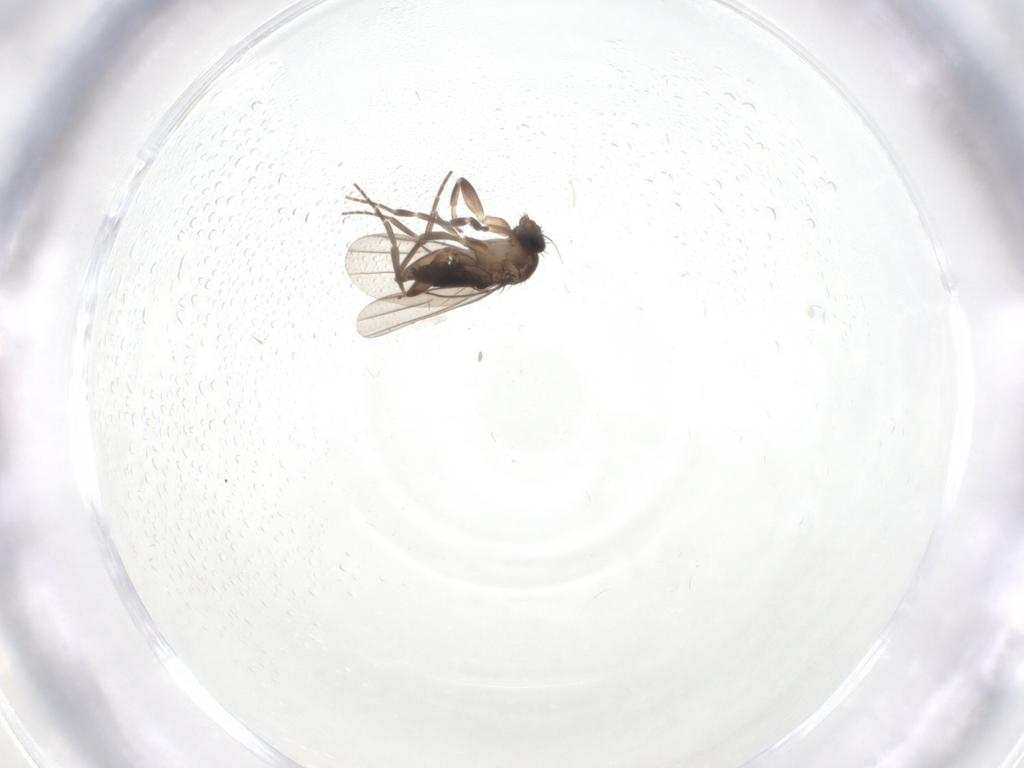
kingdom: Animalia
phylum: Arthropoda
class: Insecta
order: Diptera
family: Phoridae
